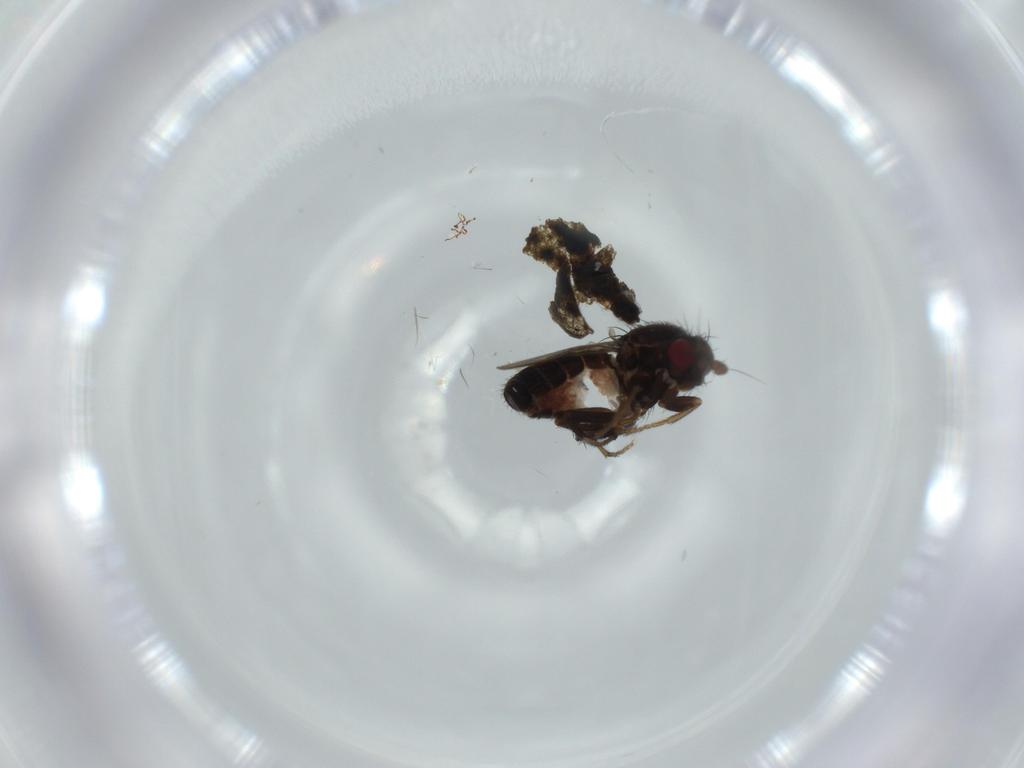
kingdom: Animalia
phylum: Arthropoda
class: Insecta
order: Diptera
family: Sphaeroceridae
